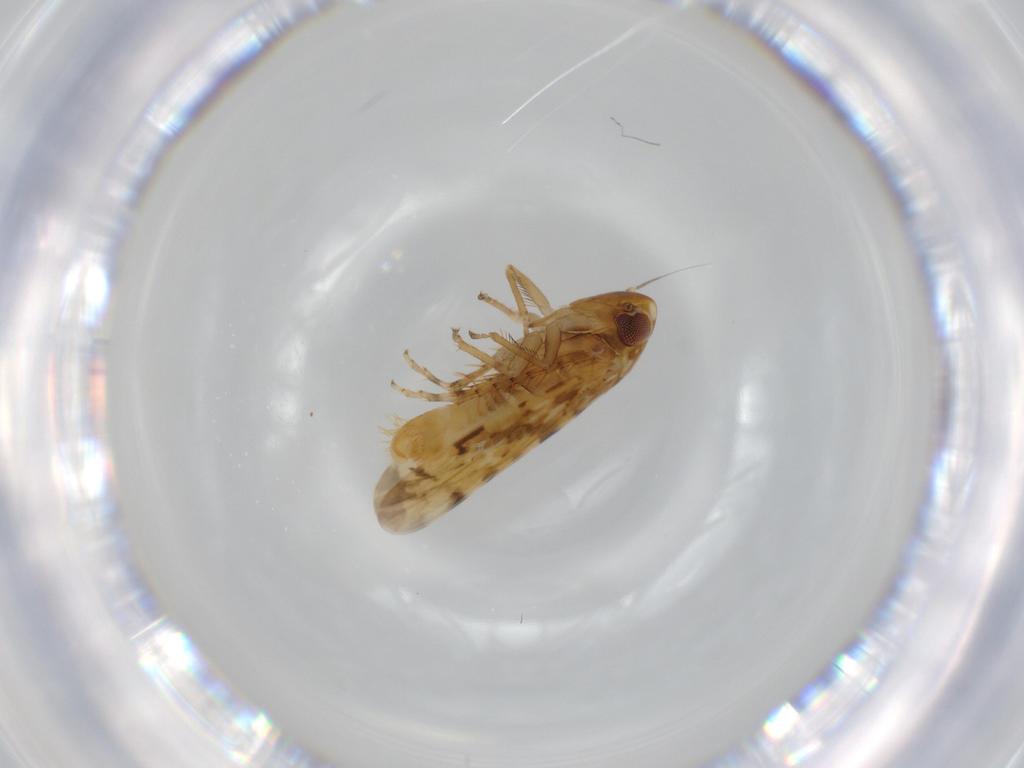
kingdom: Animalia
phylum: Arthropoda
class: Insecta
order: Hemiptera
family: Cicadellidae
